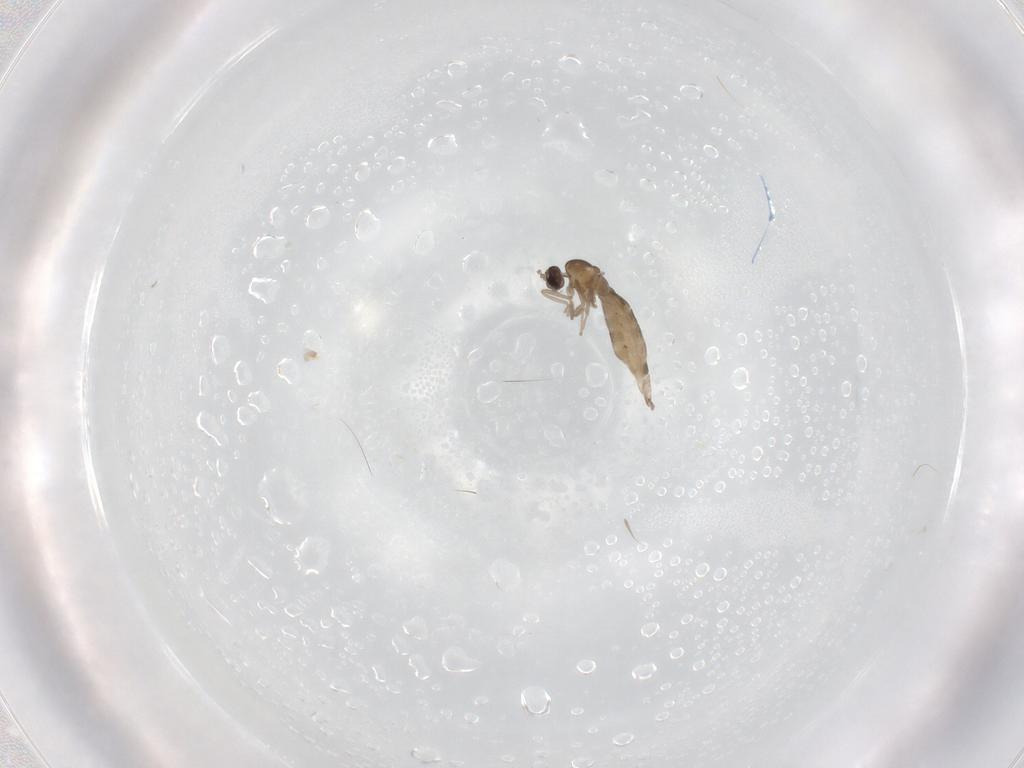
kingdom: Animalia
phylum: Arthropoda
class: Insecta
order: Diptera
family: Cecidomyiidae
